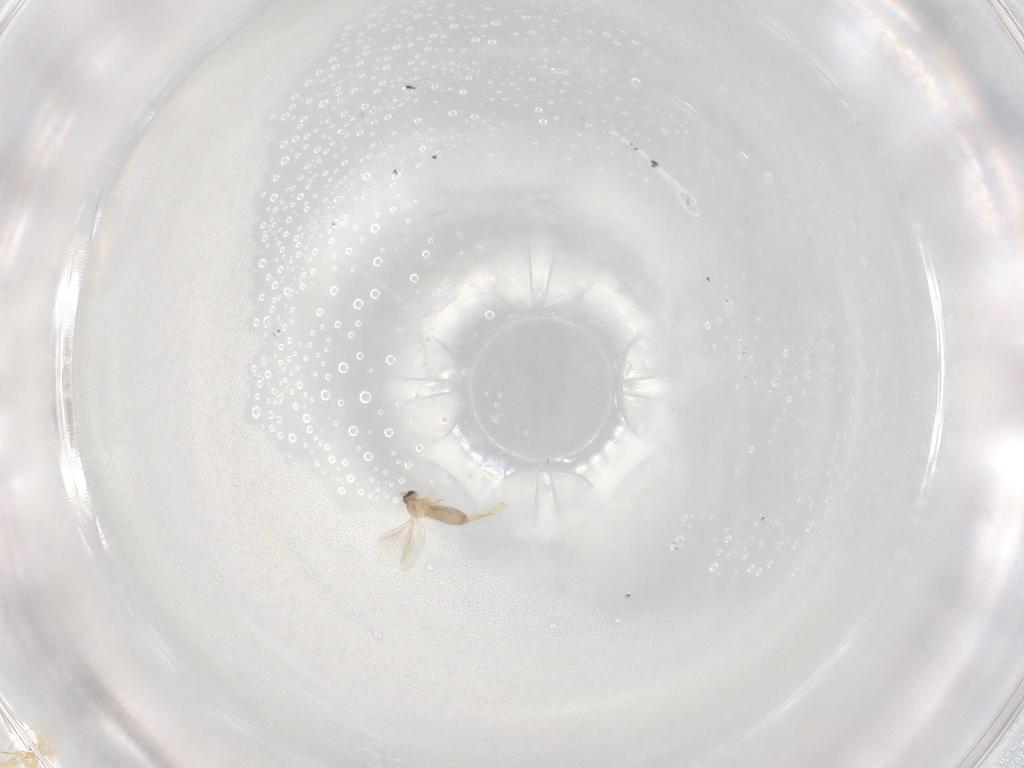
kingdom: Animalia
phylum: Arthropoda
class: Insecta
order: Diptera
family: Cecidomyiidae
